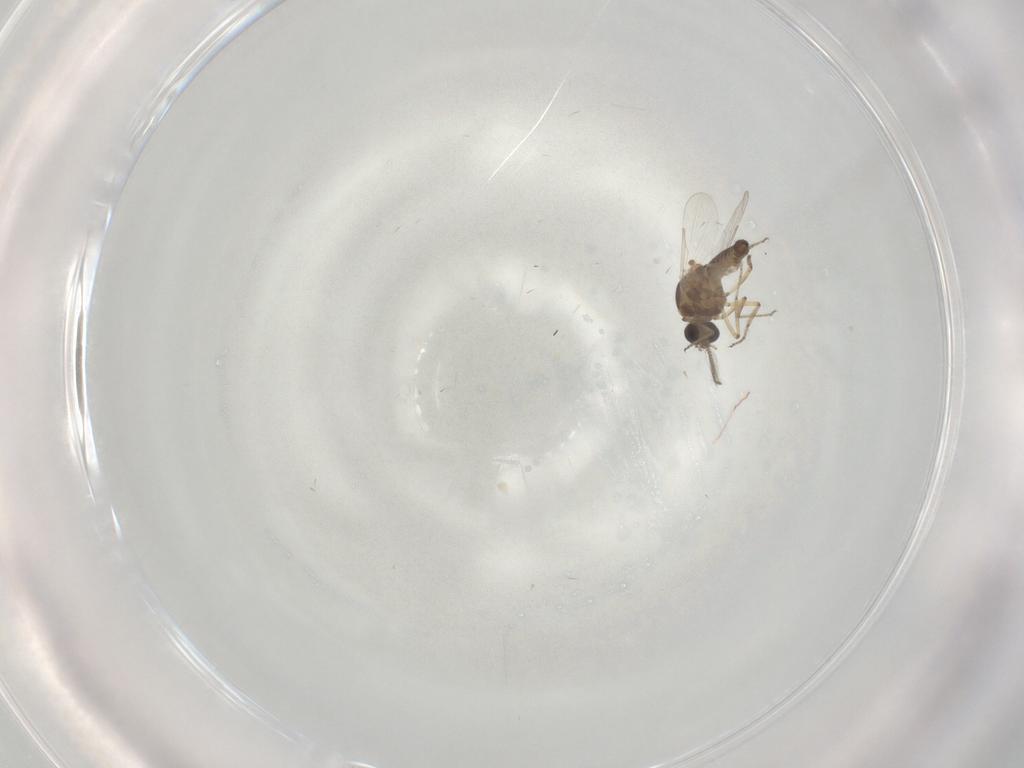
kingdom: Animalia
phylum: Arthropoda
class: Insecta
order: Diptera
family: Ceratopogonidae
